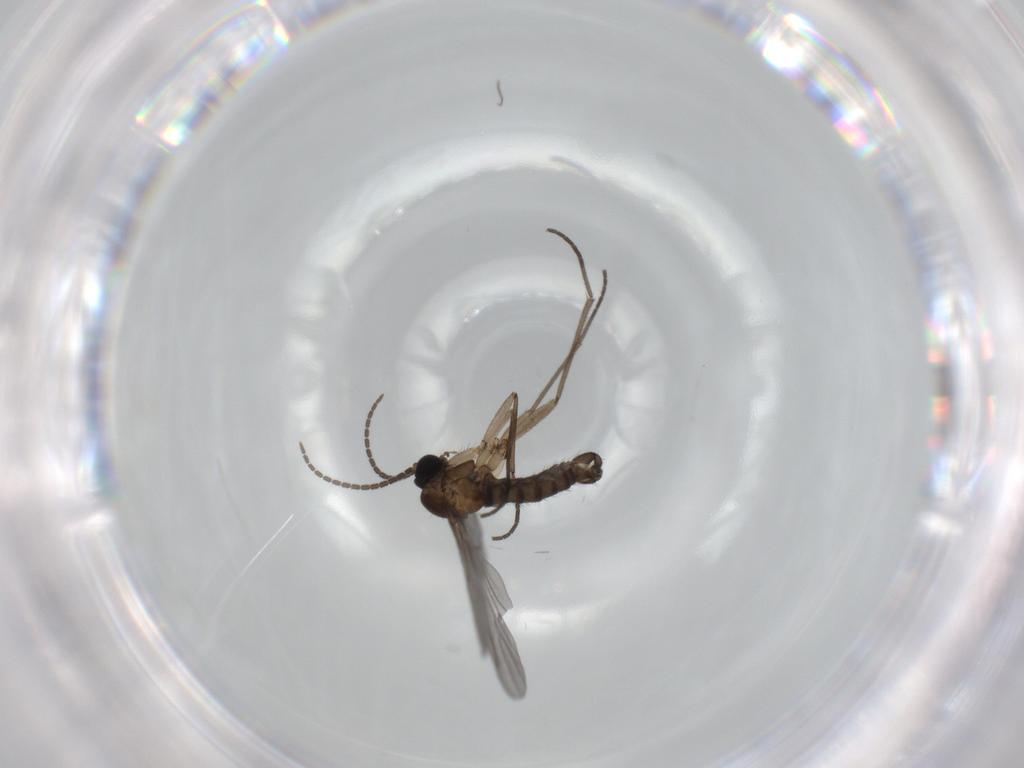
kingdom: Animalia
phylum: Arthropoda
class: Insecta
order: Diptera
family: Sciaridae
